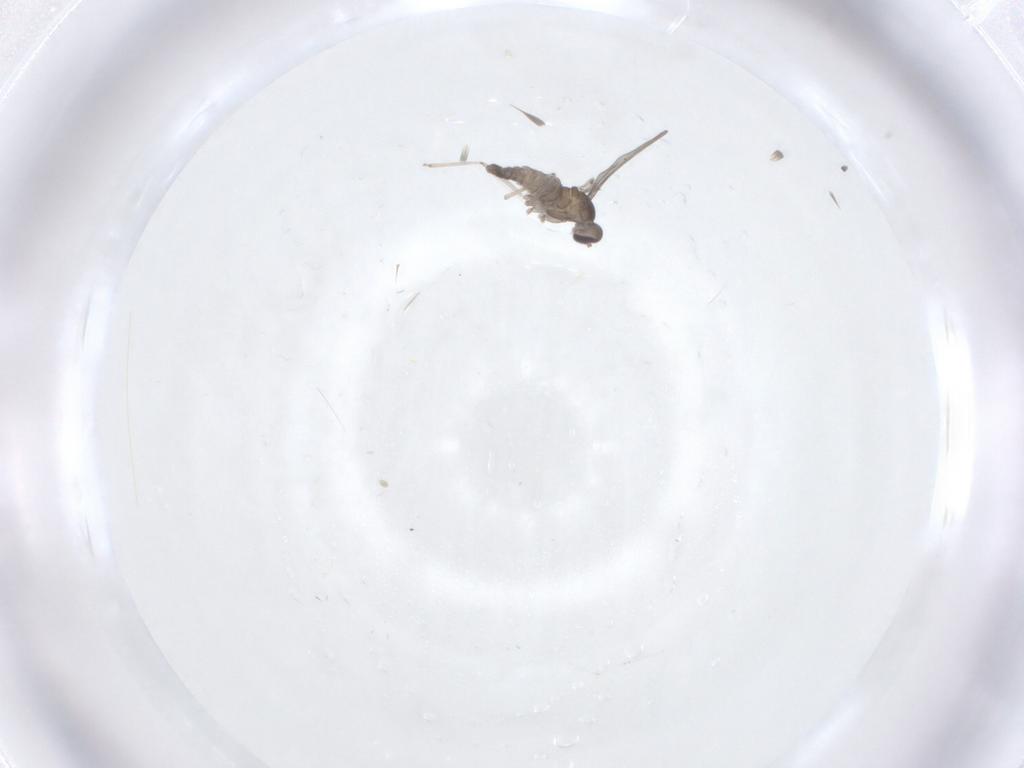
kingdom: Animalia
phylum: Arthropoda
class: Insecta
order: Diptera
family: Cecidomyiidae
